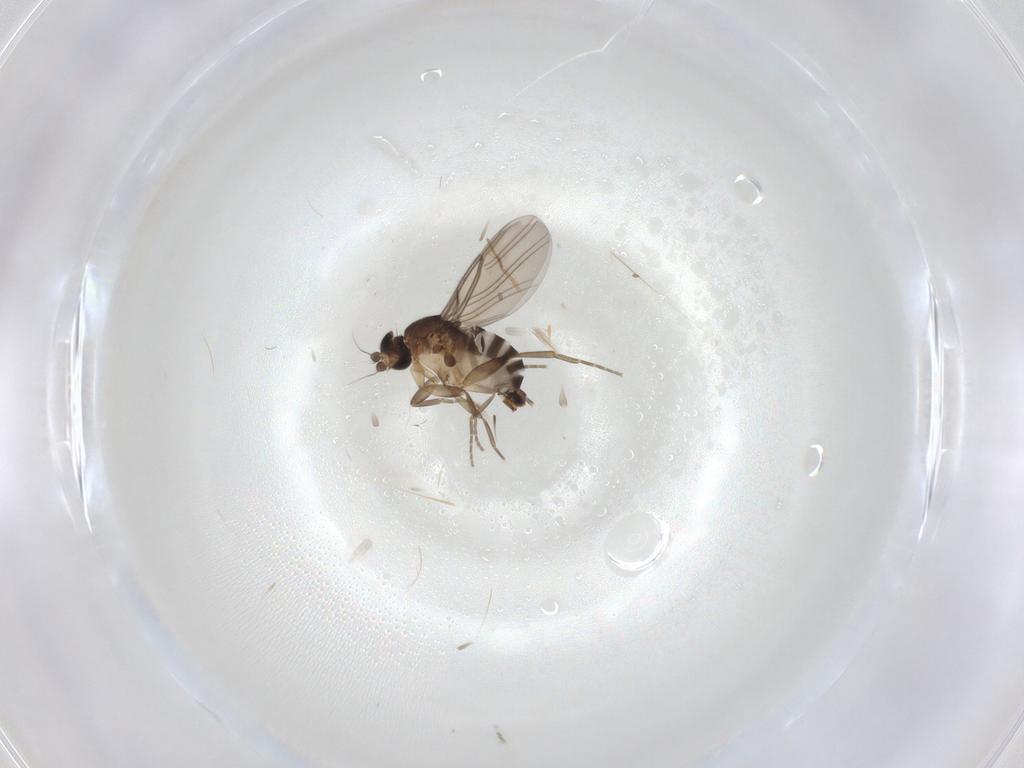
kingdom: Animalia
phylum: Arthropoda
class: Insecta
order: Diptera
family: Chironomidae
